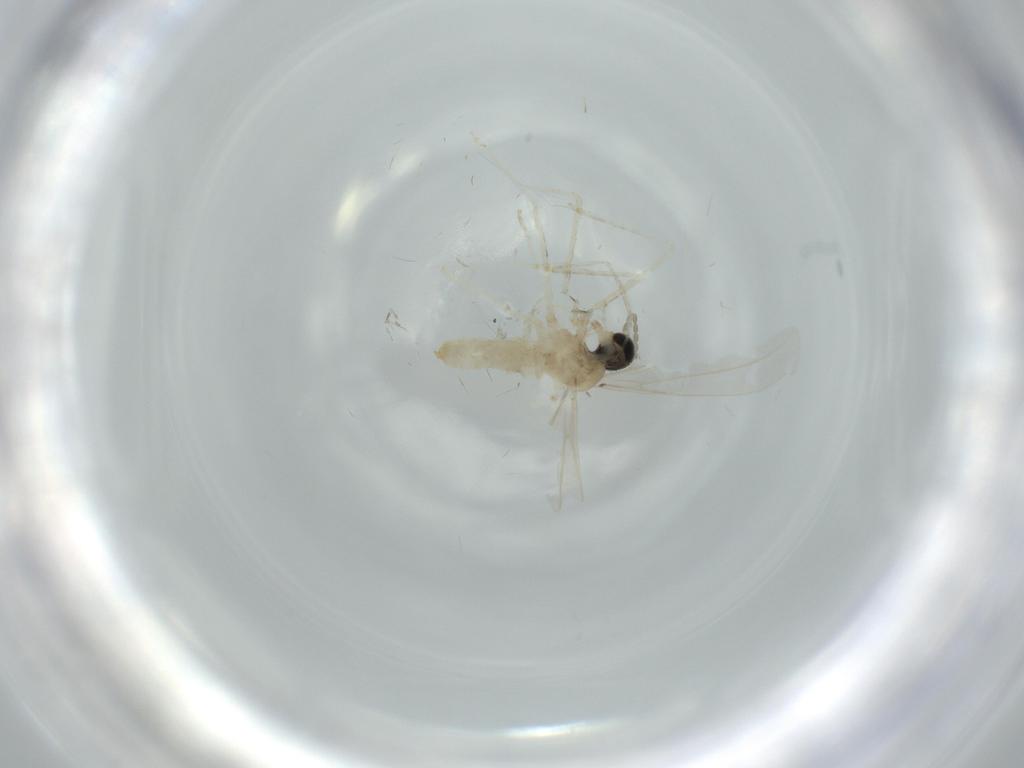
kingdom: Animalia
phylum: Arthropoda
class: Insecta
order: Diptera
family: Cecidomyiidae
